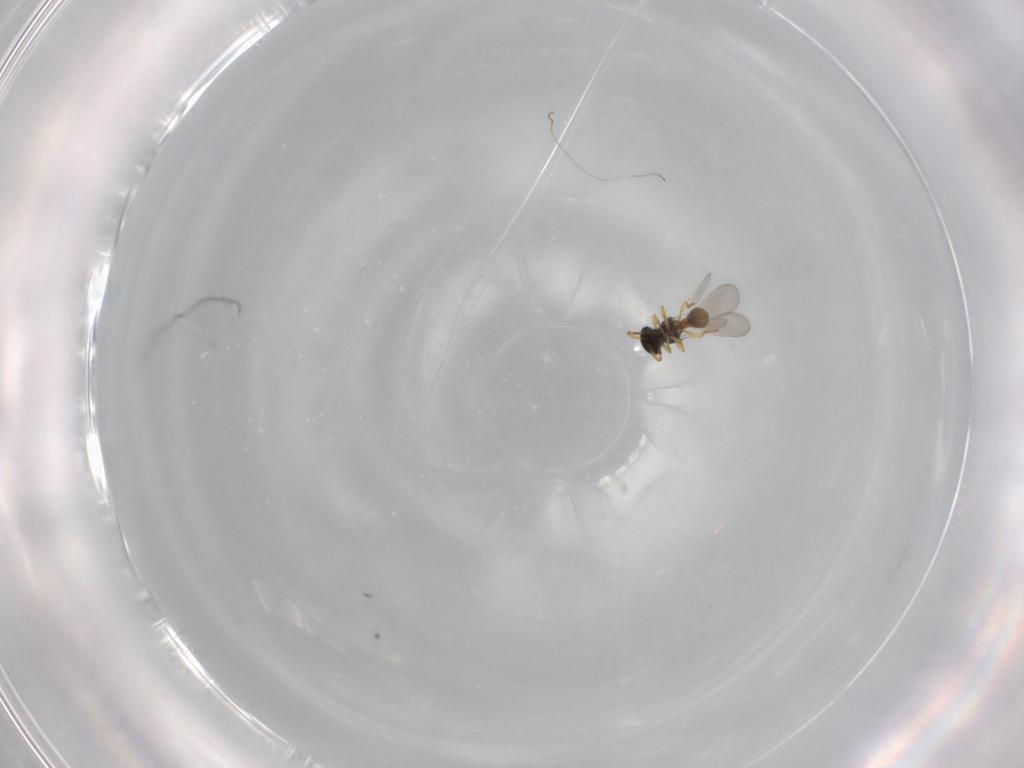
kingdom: Animalia
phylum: Arthropoda
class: Insecta
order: Hymenoptera
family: Platygastridae
